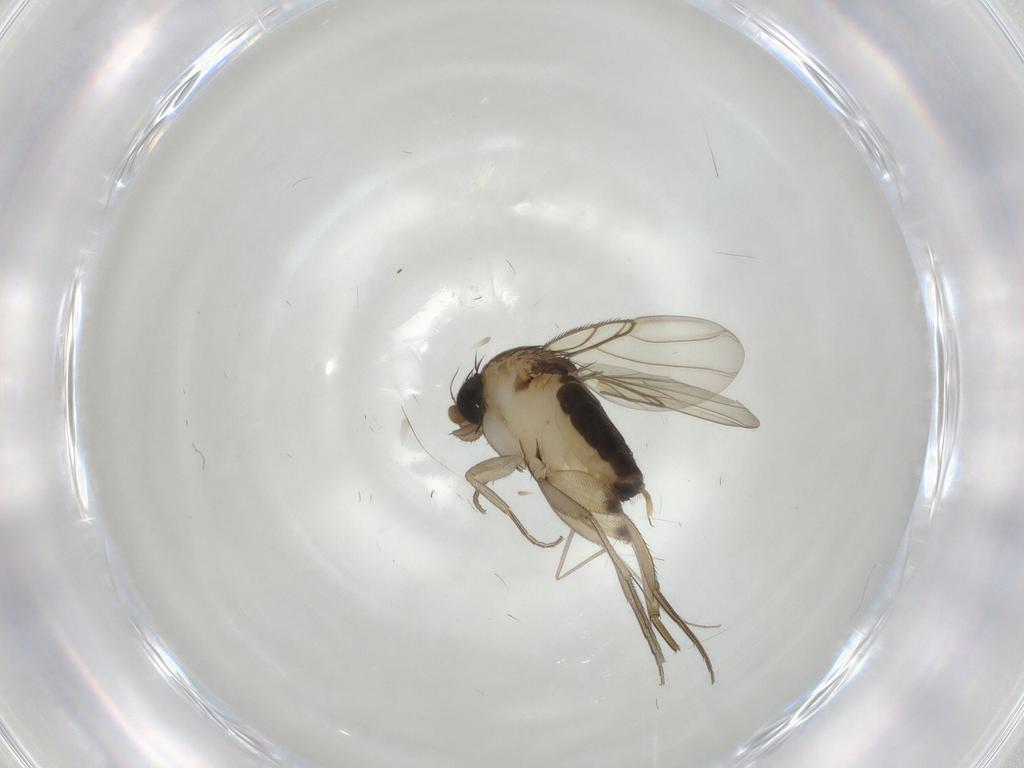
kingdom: Animalia
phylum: Arthropoda
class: Insecta
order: Diptera
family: Phoridae
